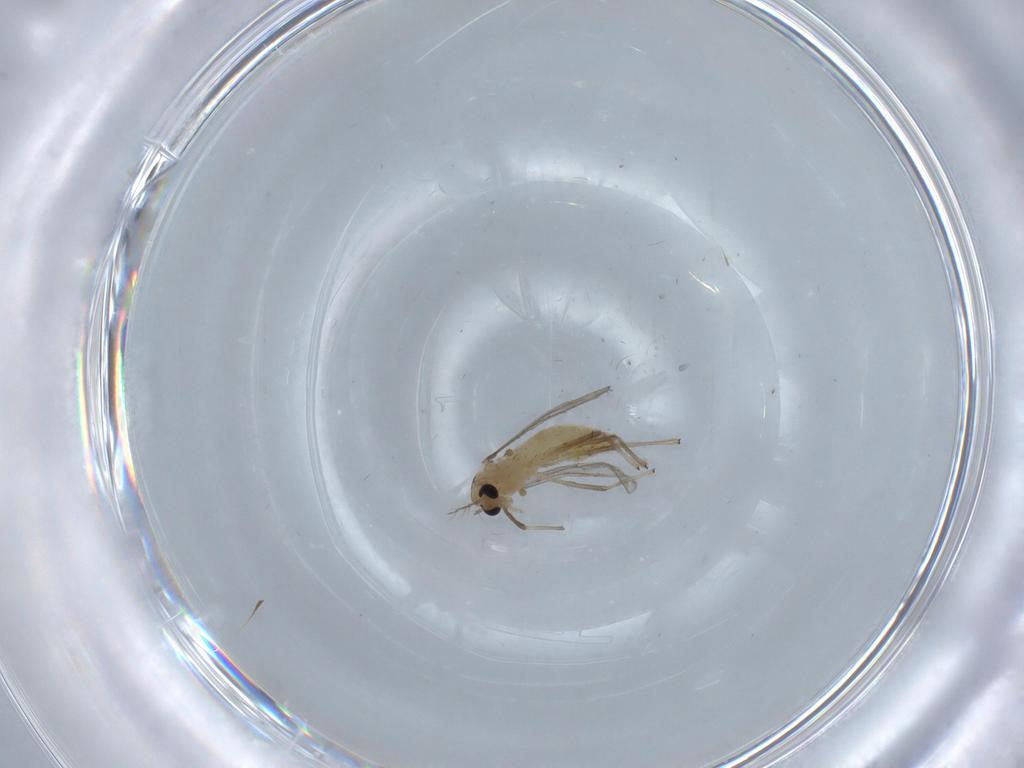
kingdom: Animalia
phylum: Arthropoda
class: Insecta
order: Diptera
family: Chironomidae
